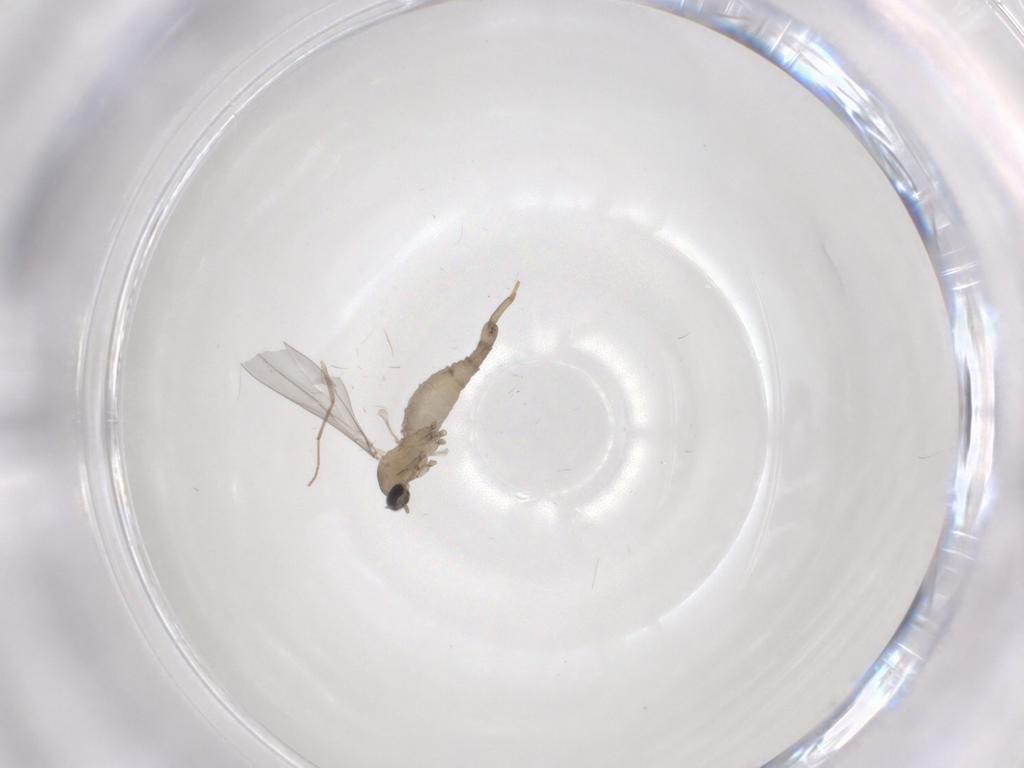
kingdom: Animalia
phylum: Arthropoda
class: Insecta
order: Diptera
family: Cecidomyiidae
